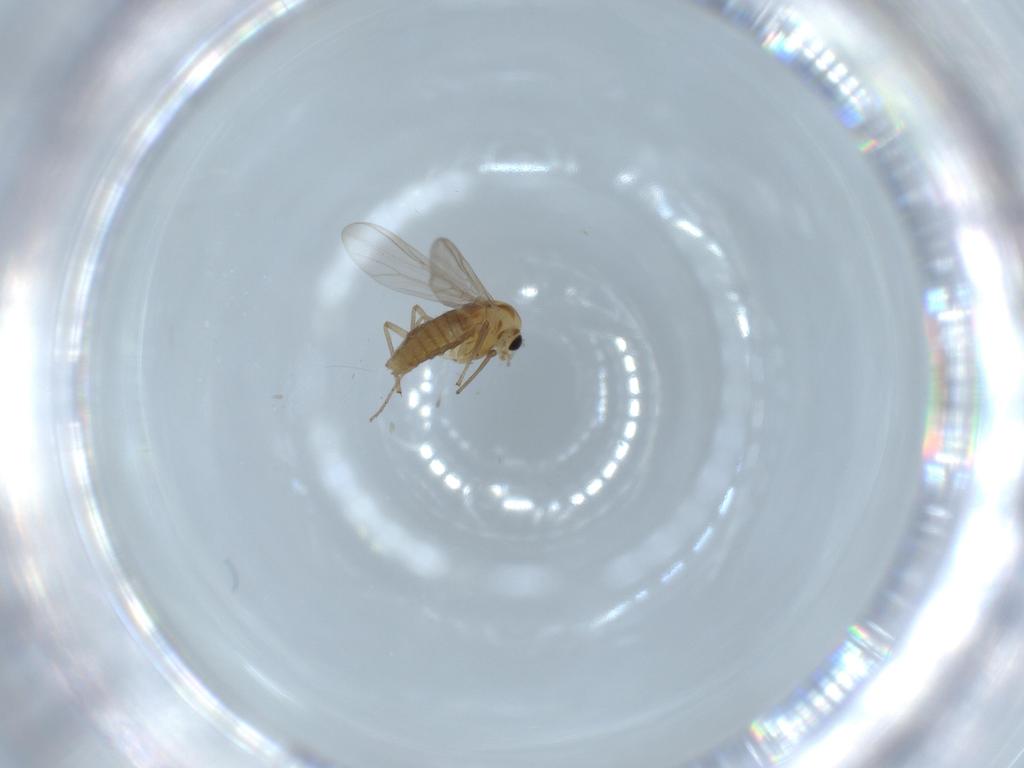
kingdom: Animalia
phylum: Arthropoda
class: Insecta
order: Diptera
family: Chironomidae
